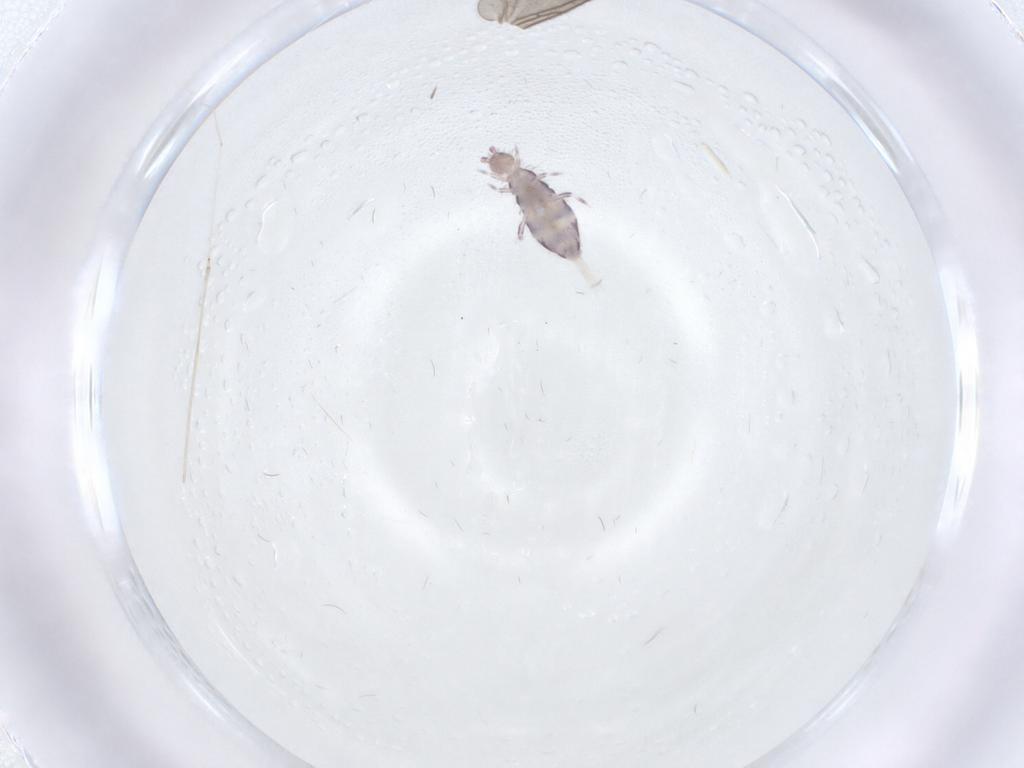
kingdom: Animalia
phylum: Arthropoda
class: Collembola
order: Entomobryomorpha
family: Entomobryidae
